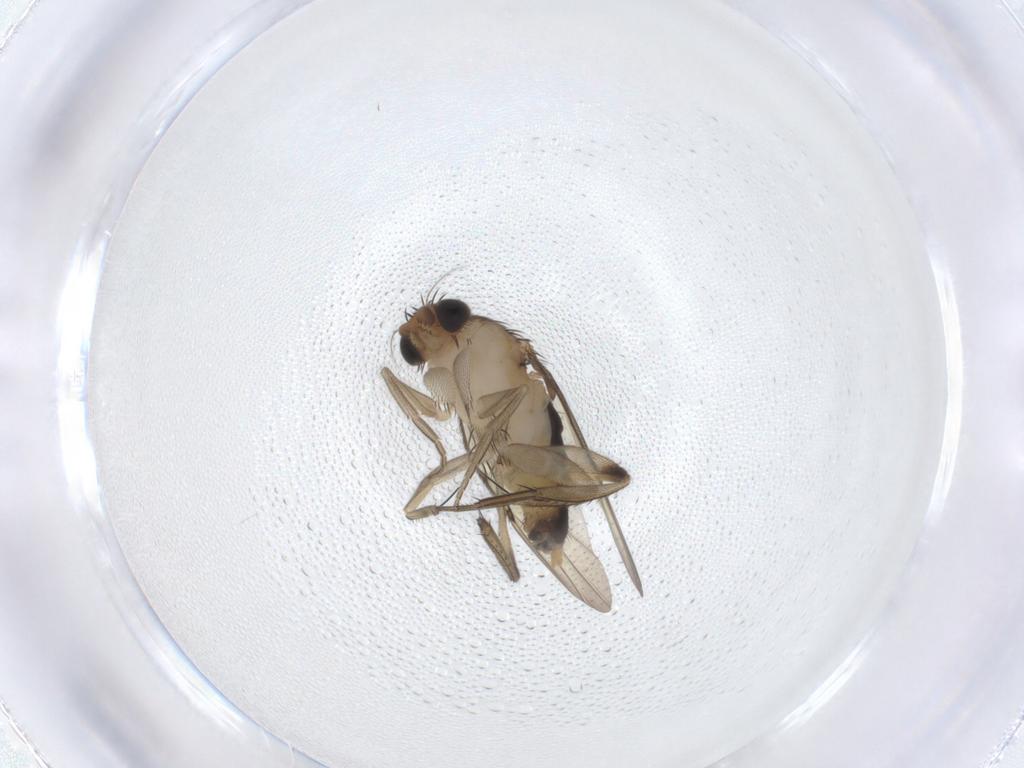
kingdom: Animalia
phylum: Arthropoda
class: Insecta
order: Diptera
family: Phoridae
